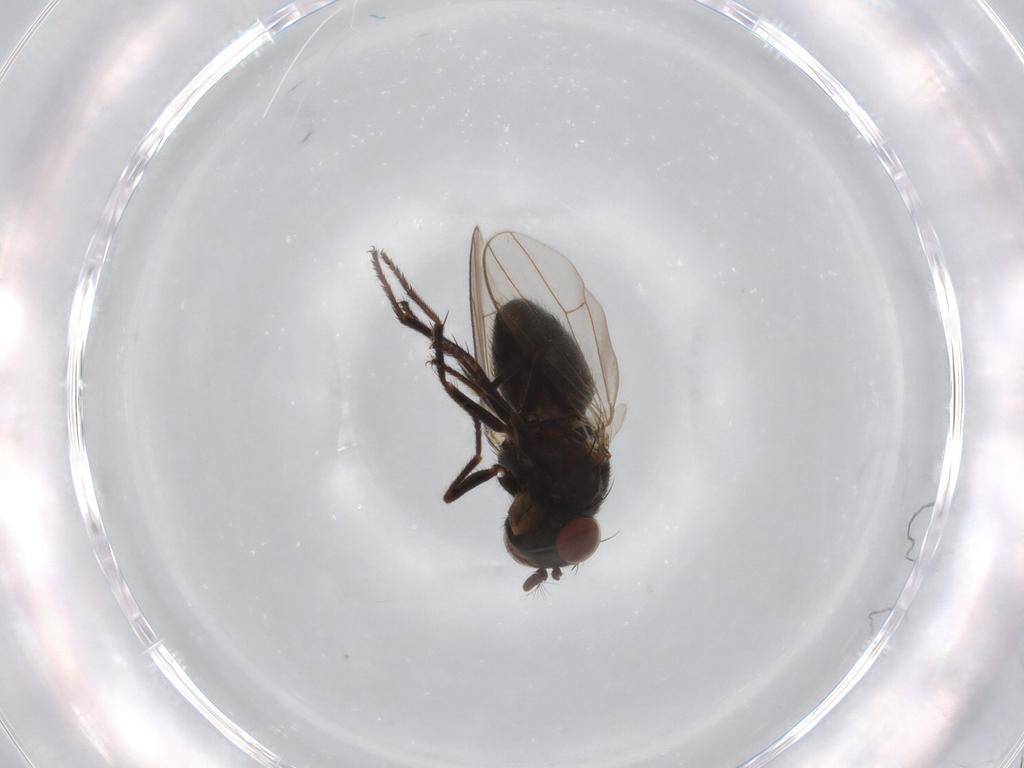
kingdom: Animalia
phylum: Arthropoda
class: Insecta
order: Diptera
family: Ephydridae
